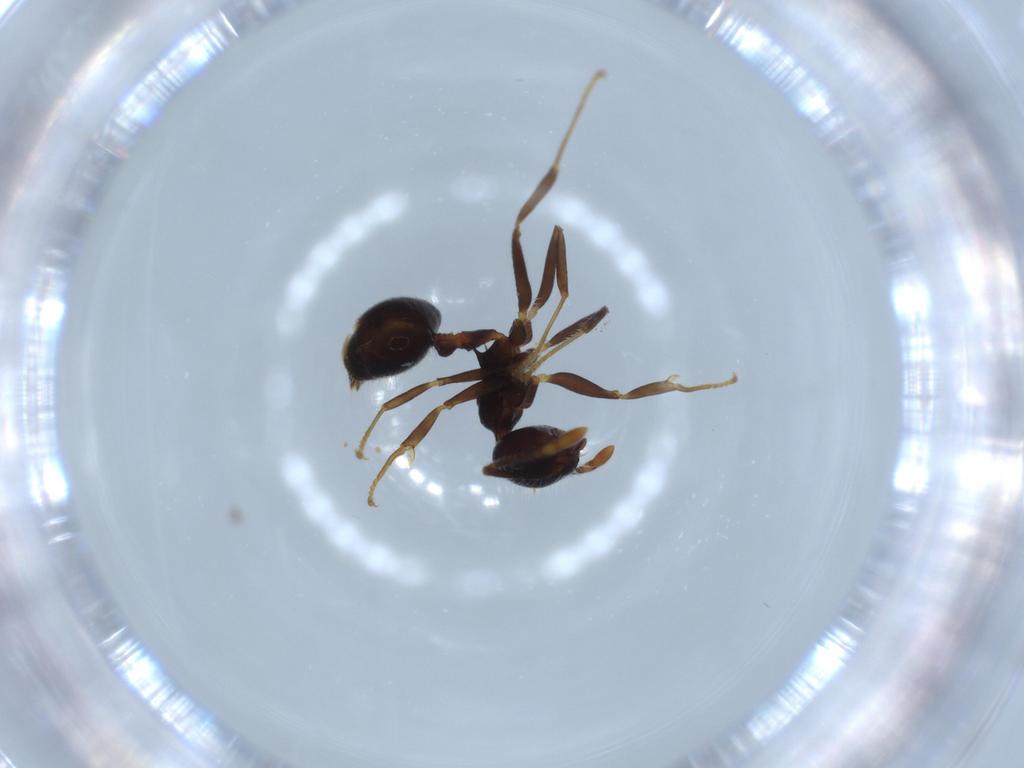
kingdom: Animalia
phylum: Arthropoda
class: Insecta
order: Hymenoptera
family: Formicidae
